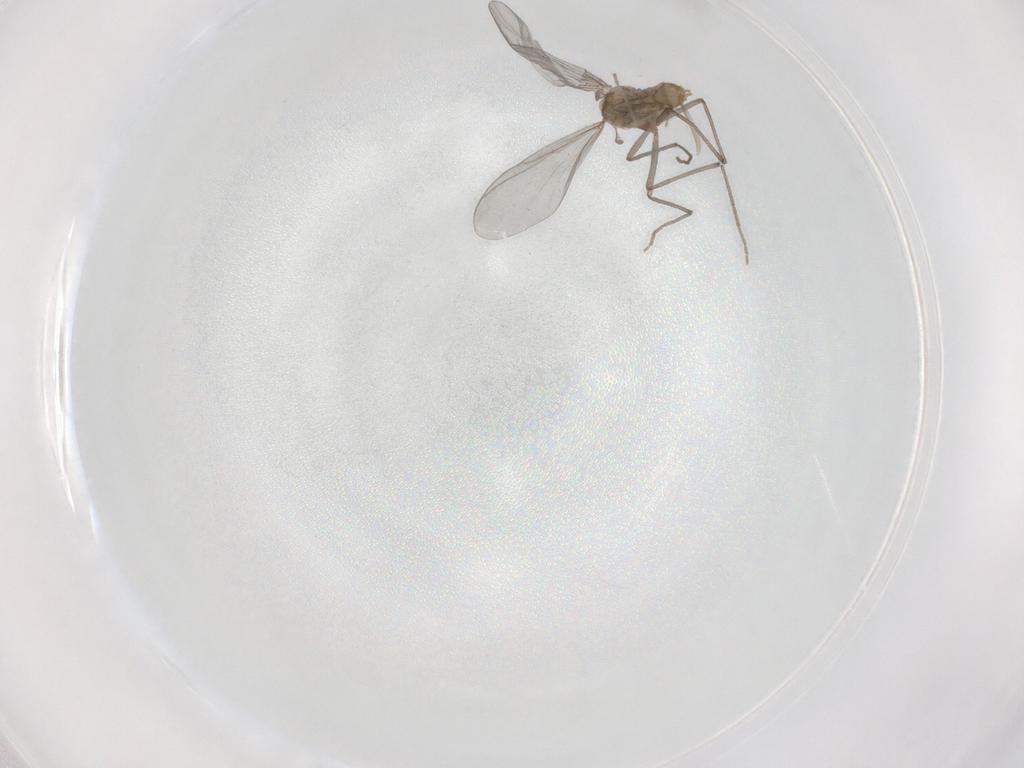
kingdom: Animalia
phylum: Arthropoda
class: Insecta
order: Diptera
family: Chironomidae
